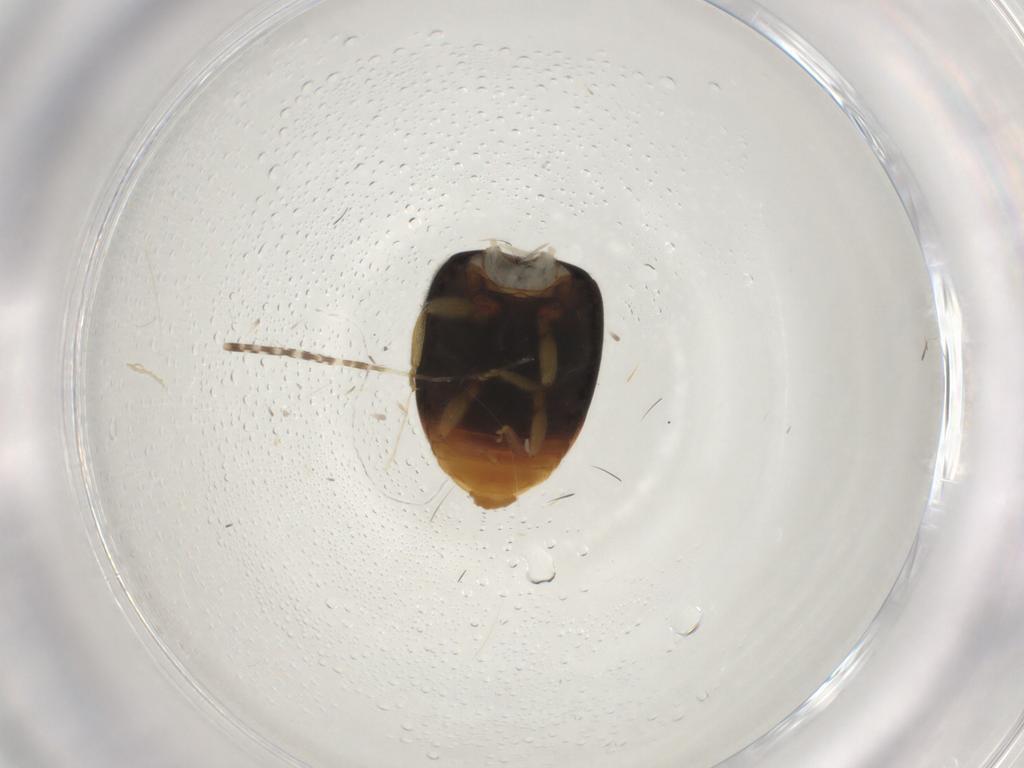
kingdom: Animalia
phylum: Arthropoda
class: Insecta
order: Coleoptera
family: Coccinellidae
